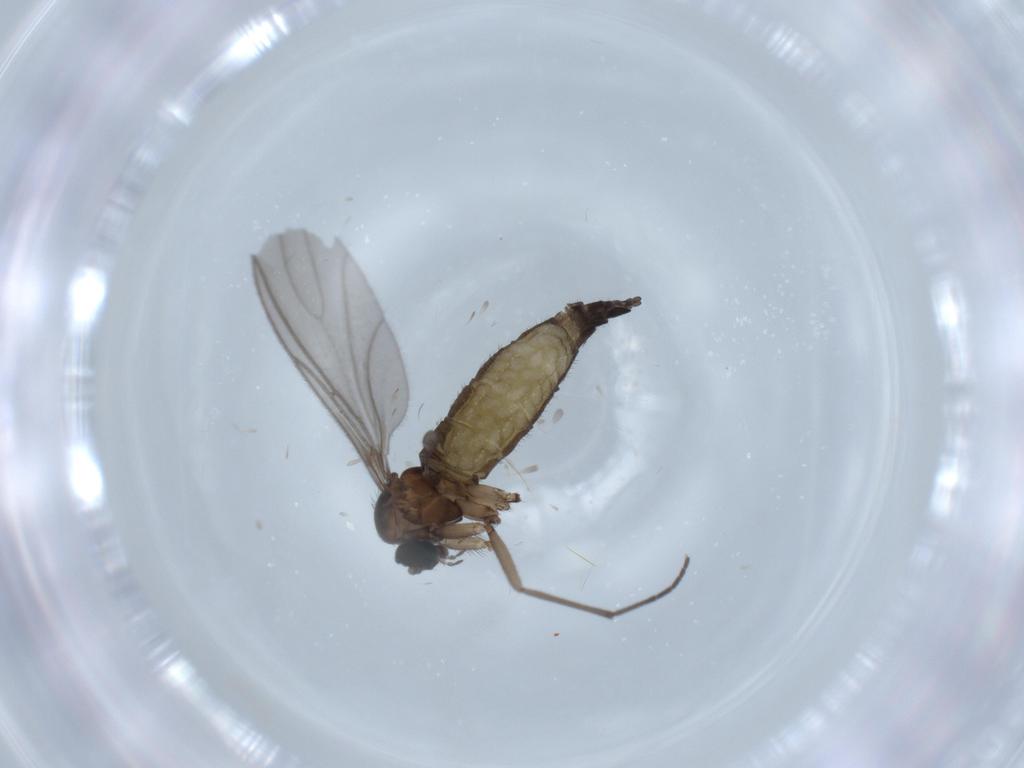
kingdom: Animalia
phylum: Arthropoda
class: Insecta
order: Diptera
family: Sciaridae
